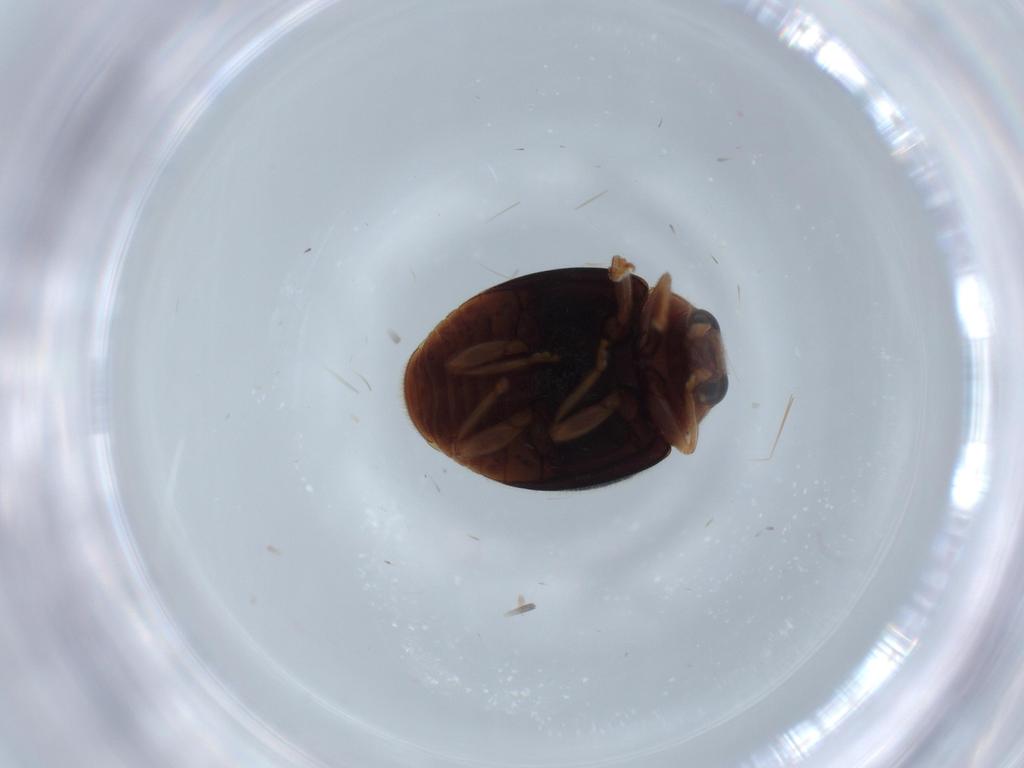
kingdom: Animalia
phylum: Arthropoda
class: Insecta
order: Coleoptera
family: Coccinellidae
